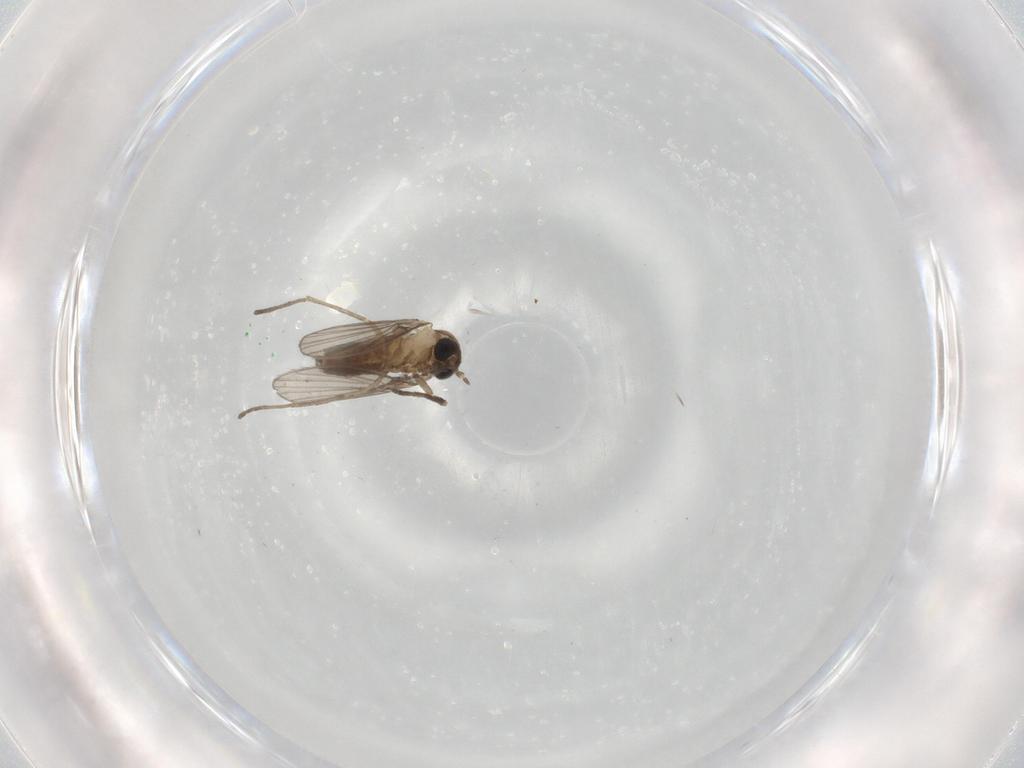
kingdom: Animalia
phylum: Arthropoda
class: Insecta
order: Diptera
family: Psychodidae
